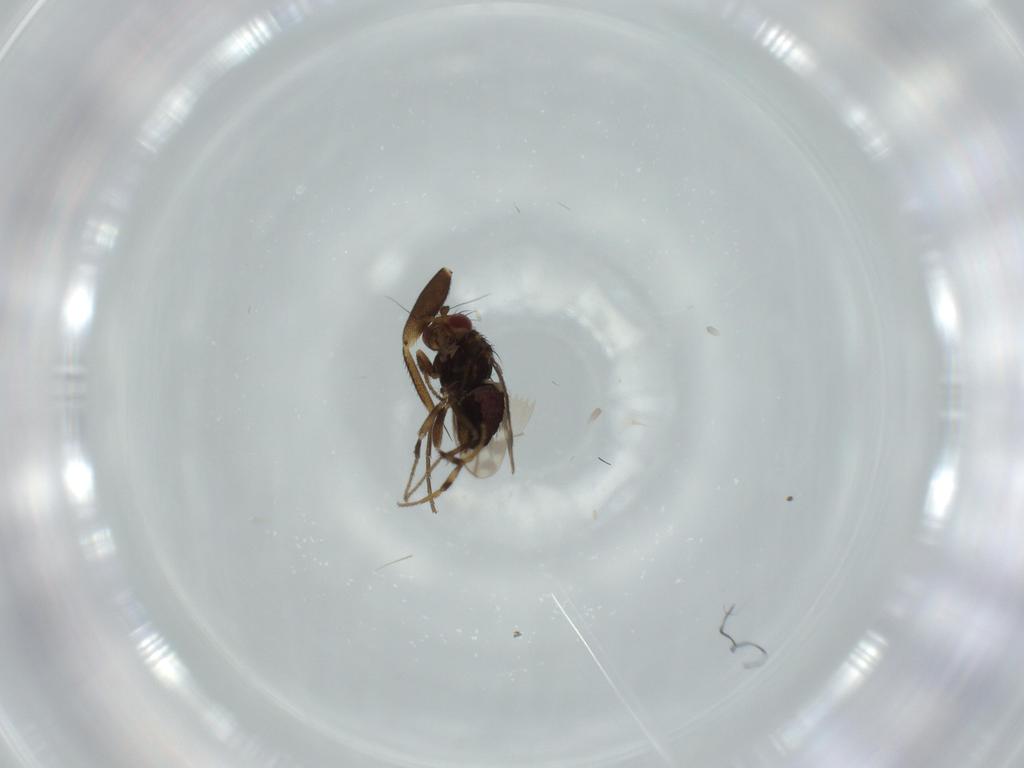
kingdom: Animalia
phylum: Arthropoda
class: Insecta
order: Diptera
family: Sphaeroceridae
